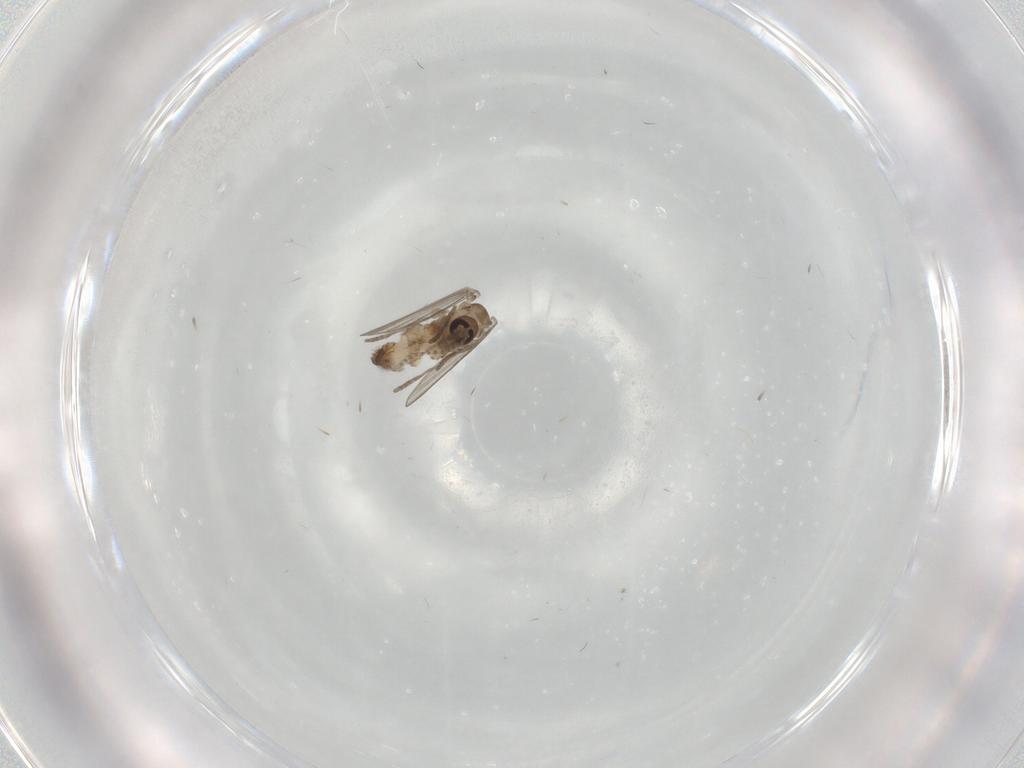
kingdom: Animalia
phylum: Arthropoda
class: Insecta
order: Diptera
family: Psychodidae
